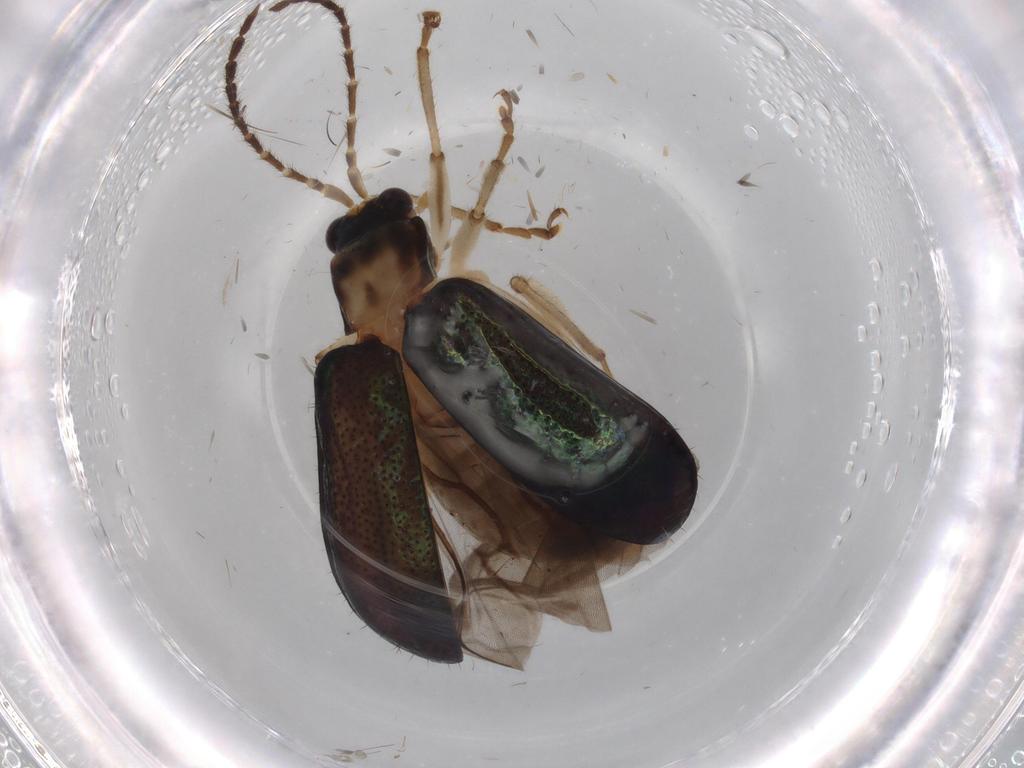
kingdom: Animalia
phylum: Arthropoda
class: Insecta
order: Coleoptera
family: Chrysomelidae
